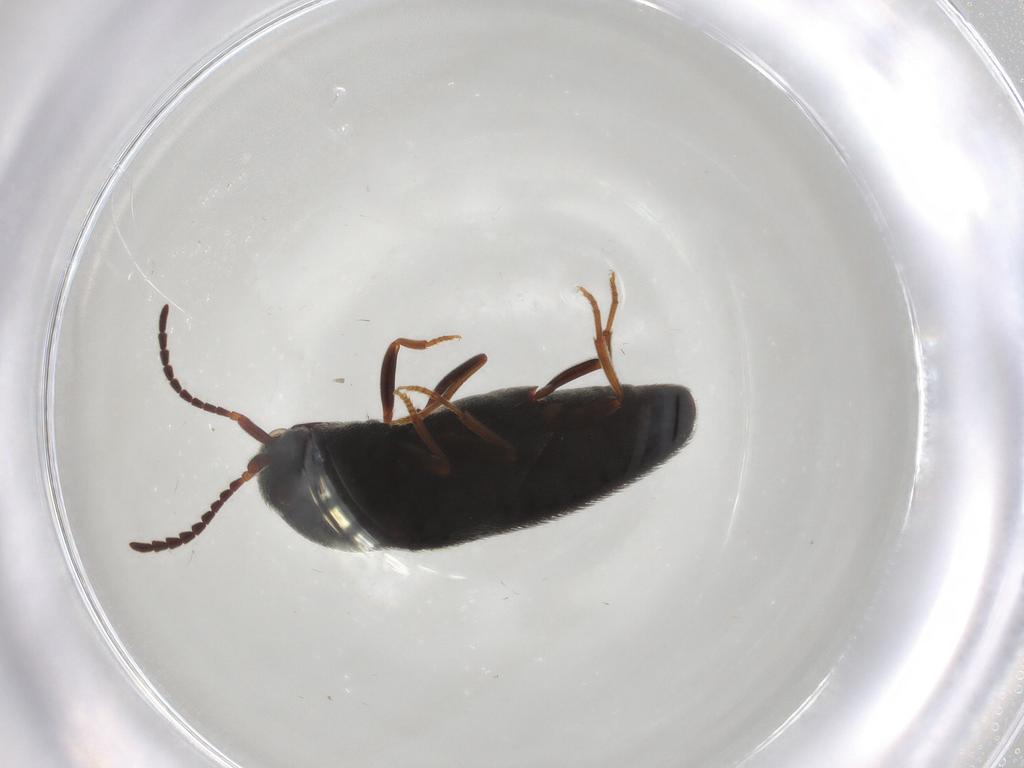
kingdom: Animalia
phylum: Arthropoda
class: Insecta
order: Coleoptera
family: Eucnemidae
